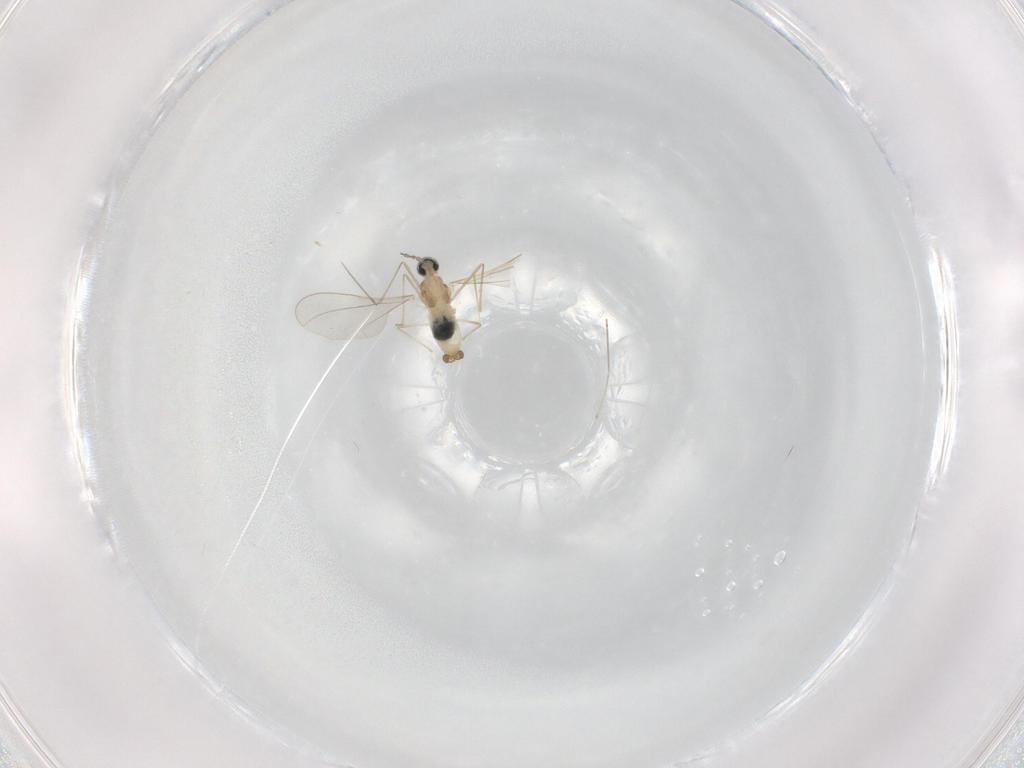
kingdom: Animalia
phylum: Arthropoda
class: Insecta
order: Diptera
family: Cecidomyiidae
